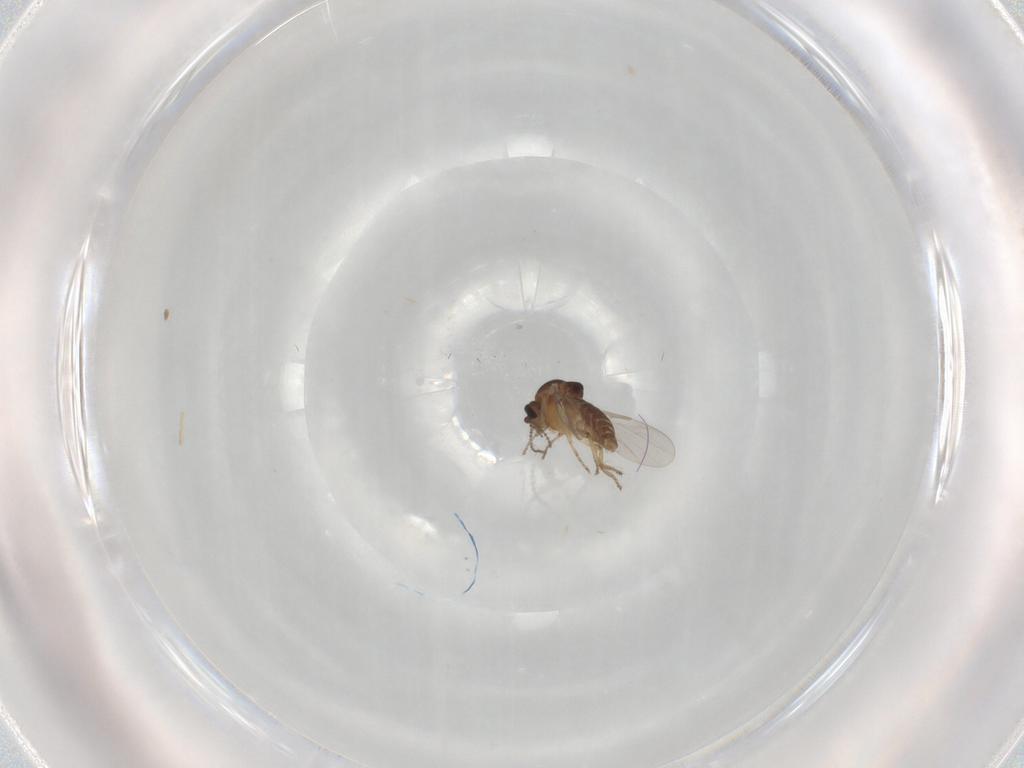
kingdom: Animalia
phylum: Arthropoda
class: Insecta
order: Diptera
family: Ceratopogonidae
